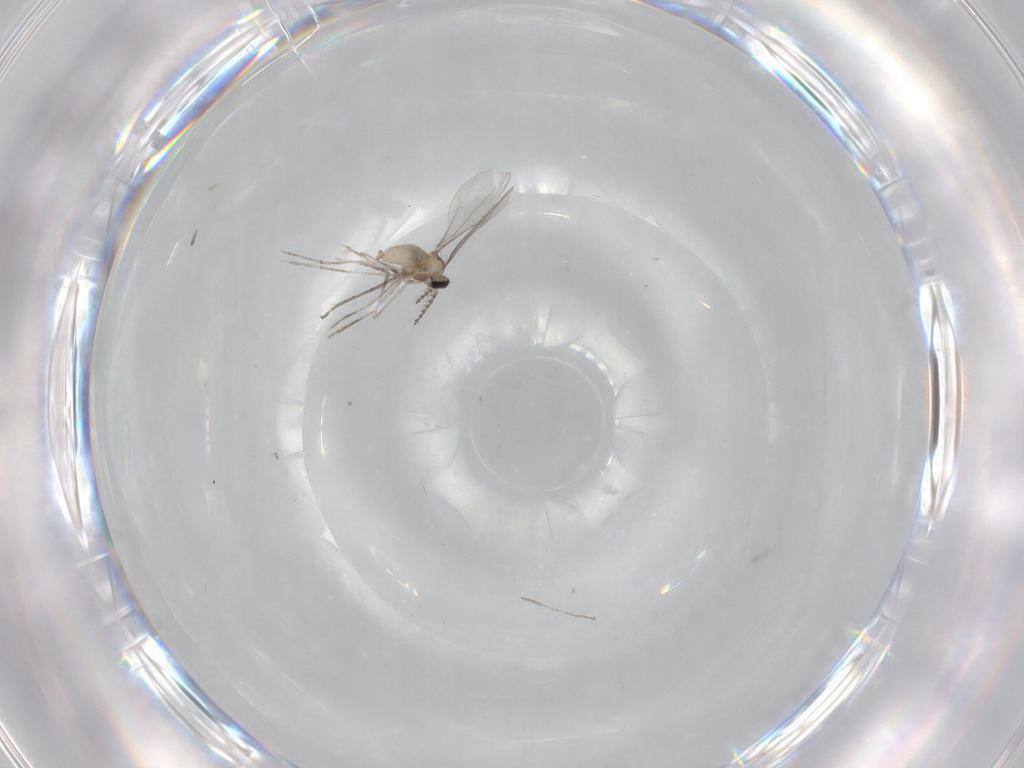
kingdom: Animalia
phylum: Arthropoda
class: Insecta
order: Diptera
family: Cecidomyiidae
